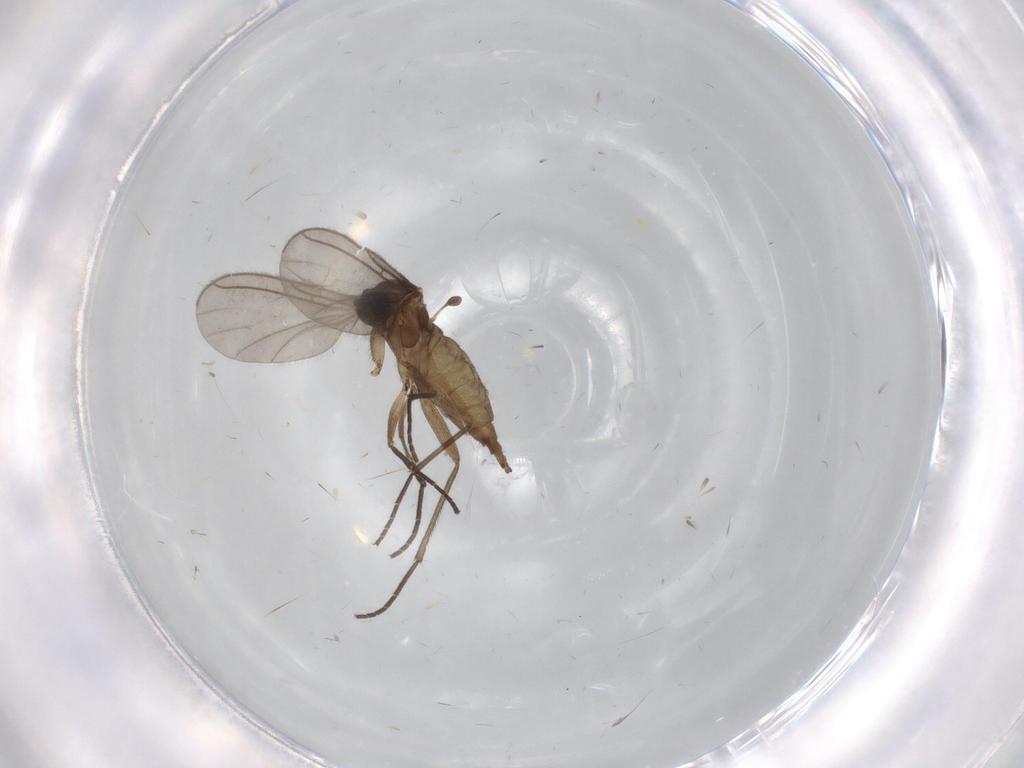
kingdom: Animalia
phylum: Arthropoda
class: Insecta
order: Diptera
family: Sciaridae
